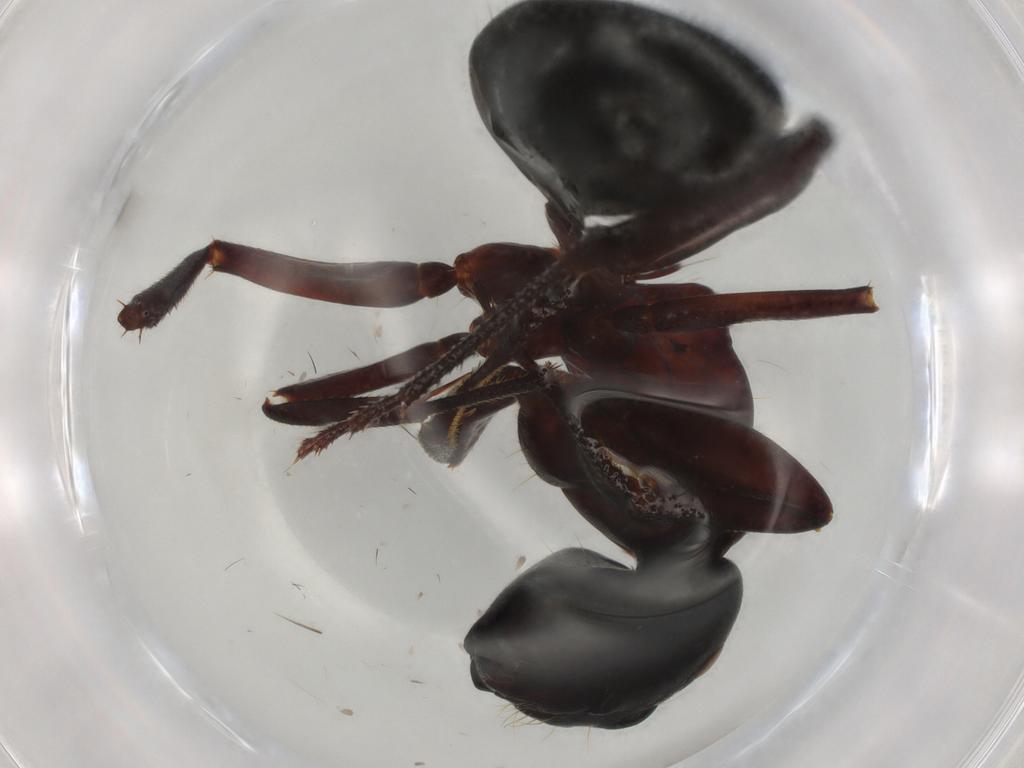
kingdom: Animalia
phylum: Arthropoda
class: Insecta
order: Hymenoptera
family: Formicidae
